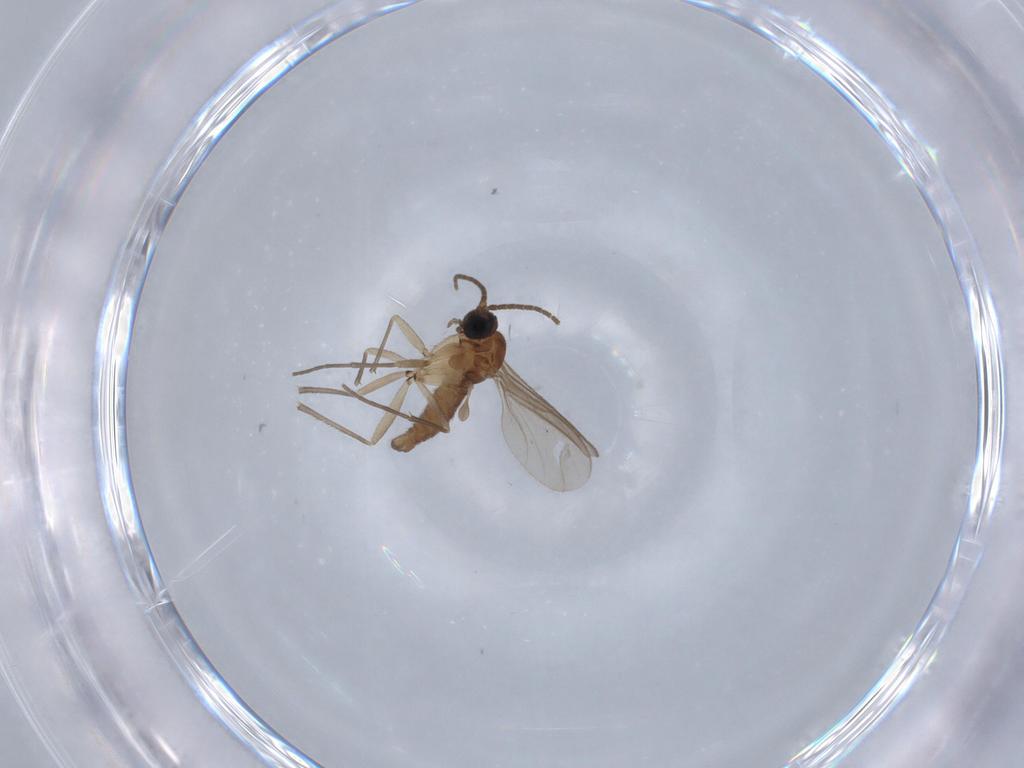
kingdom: Animalia
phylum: Arthropoda
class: Insecta
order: Diptera
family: Sciaridae
